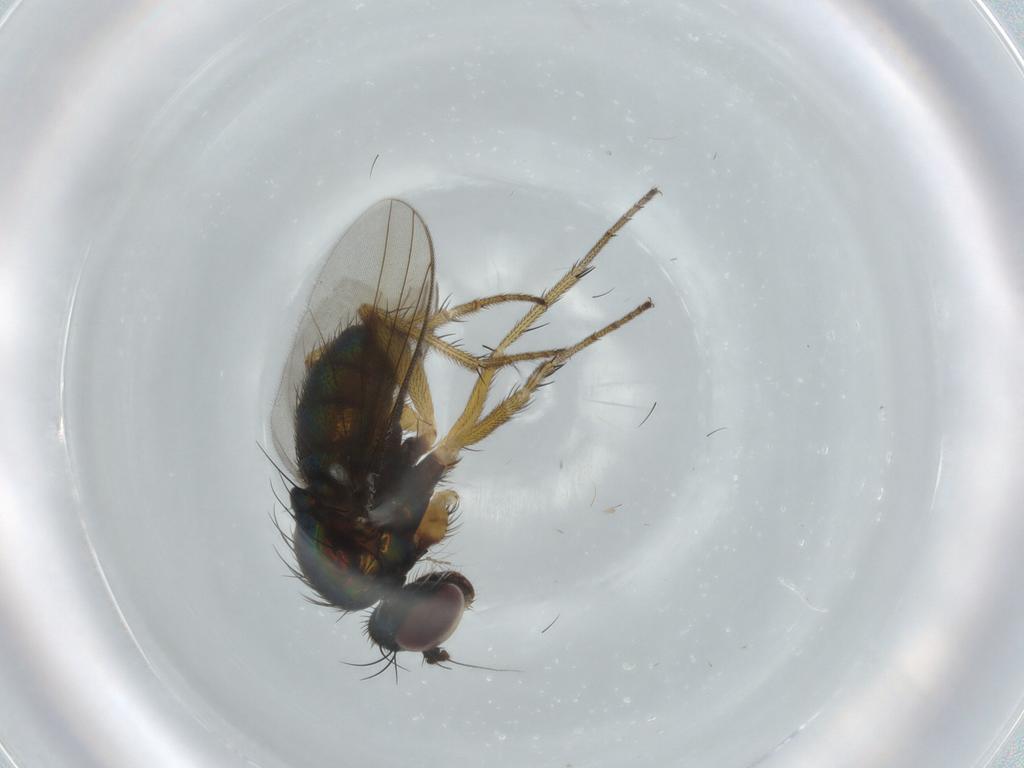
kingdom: Animalia
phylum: Arthropoda
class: Insecta
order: Diptera
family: Dolichopodidae
